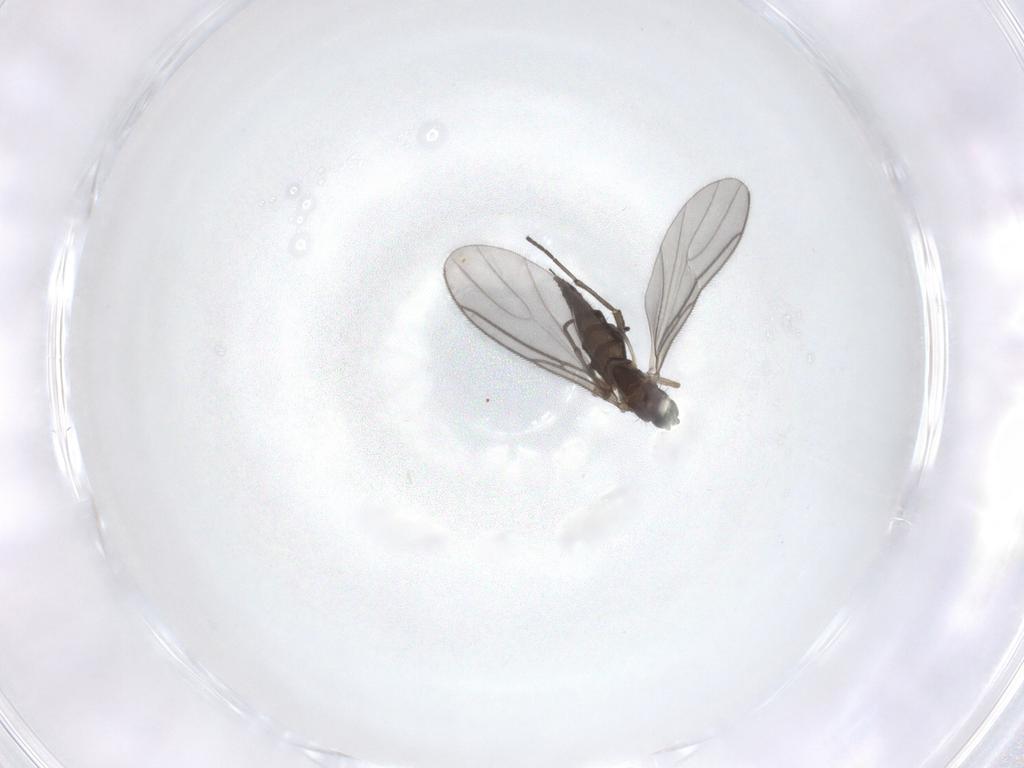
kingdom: Animalia
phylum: Arthropoda
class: Insecta
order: Diptera
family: Sciaridae
